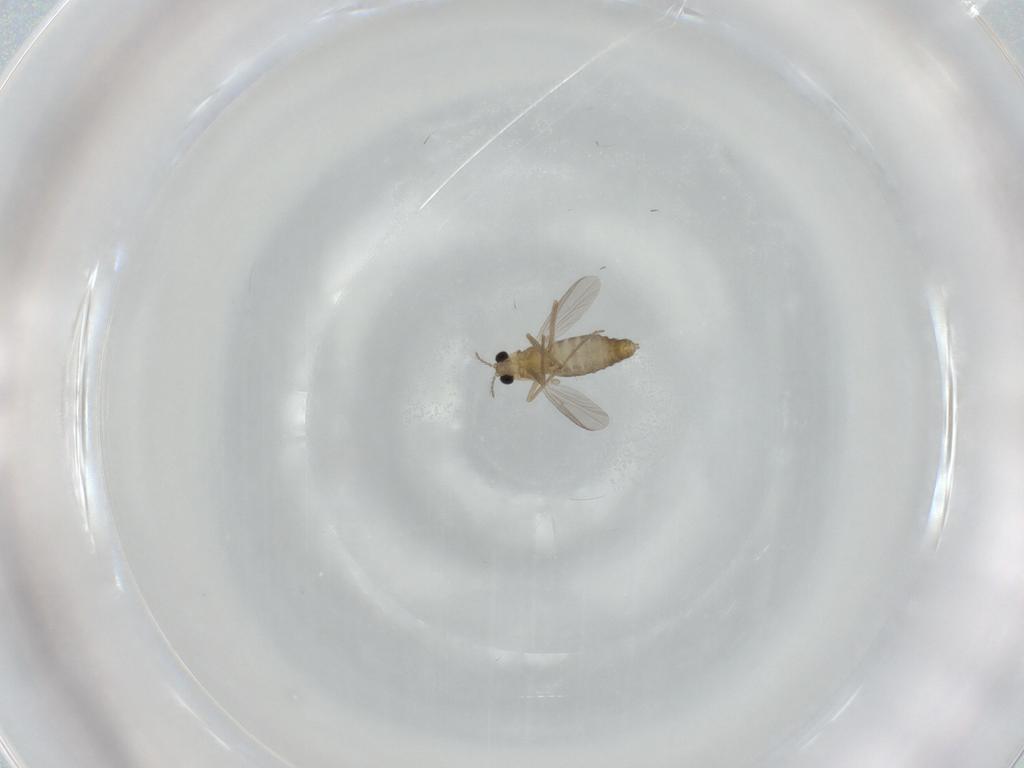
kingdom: Animalia
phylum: Arthropoda
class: Insecta
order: Diptera
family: Chironomidae
